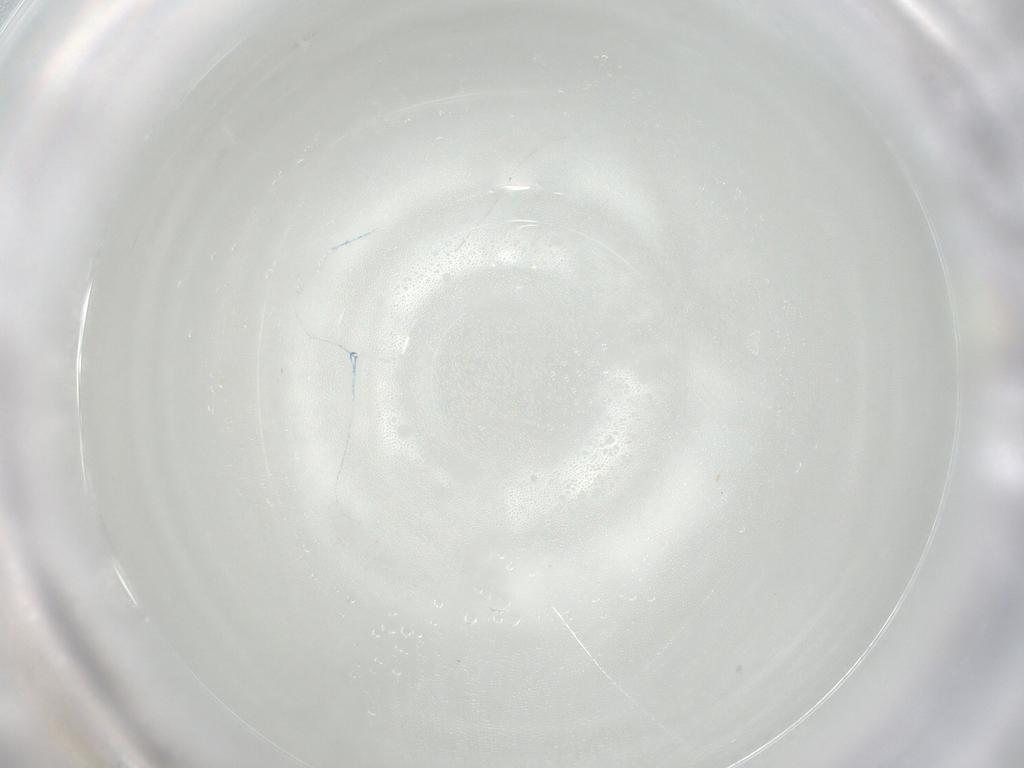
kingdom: Animalia
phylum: Arthropoda
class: Insecta
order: Lepidoptera
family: Gelechiidae
